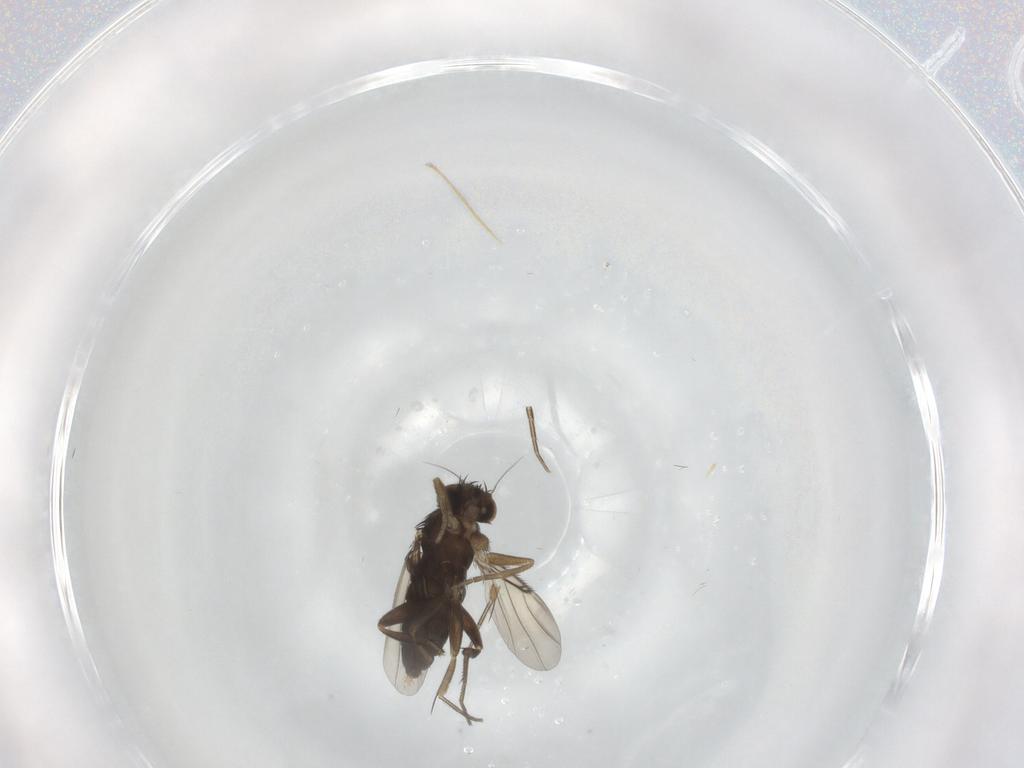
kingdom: Animalia
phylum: Arthropoda
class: Insecta
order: Diptera
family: Phoridae
